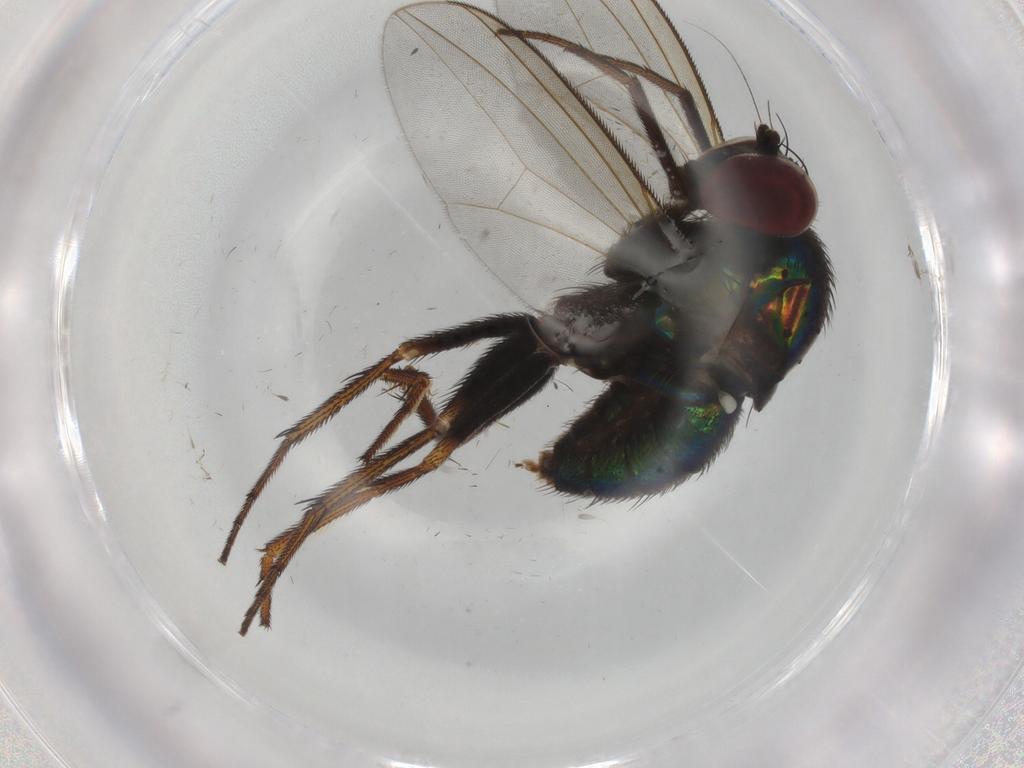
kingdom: Animalia
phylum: Arthropoda
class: Insecta
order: Diptera
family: Dolichopodidae
